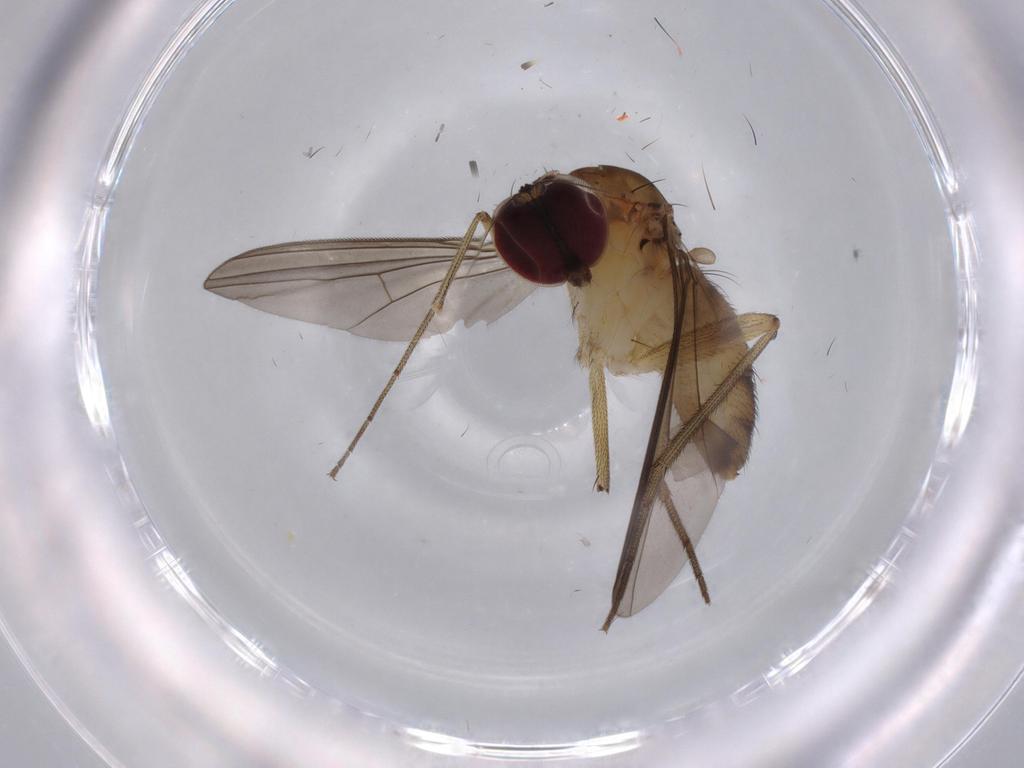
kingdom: Animalia
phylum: Arthropoda
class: Insecta
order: Diptera
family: Dolichopodidae
